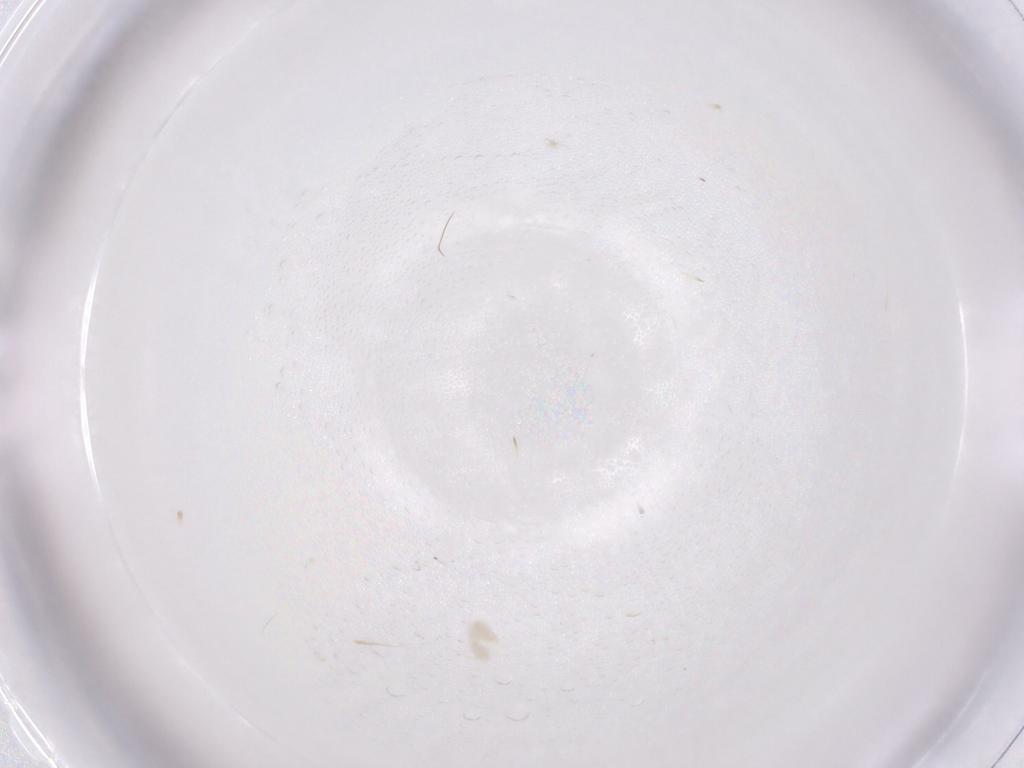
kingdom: Animalia
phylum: Arthropoda
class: Arachnida
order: Trombidiformes
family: Eupodidae
